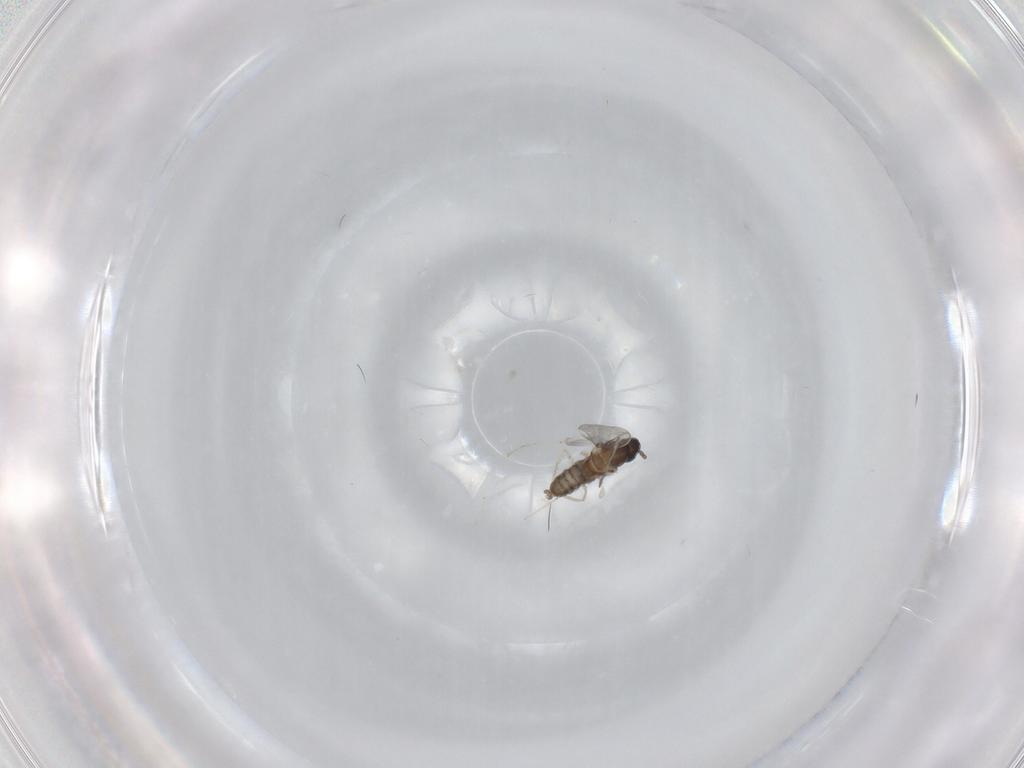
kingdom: Animalia
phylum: Arthropoda
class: Insecta
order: Diptera
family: Cecidomyiidae
